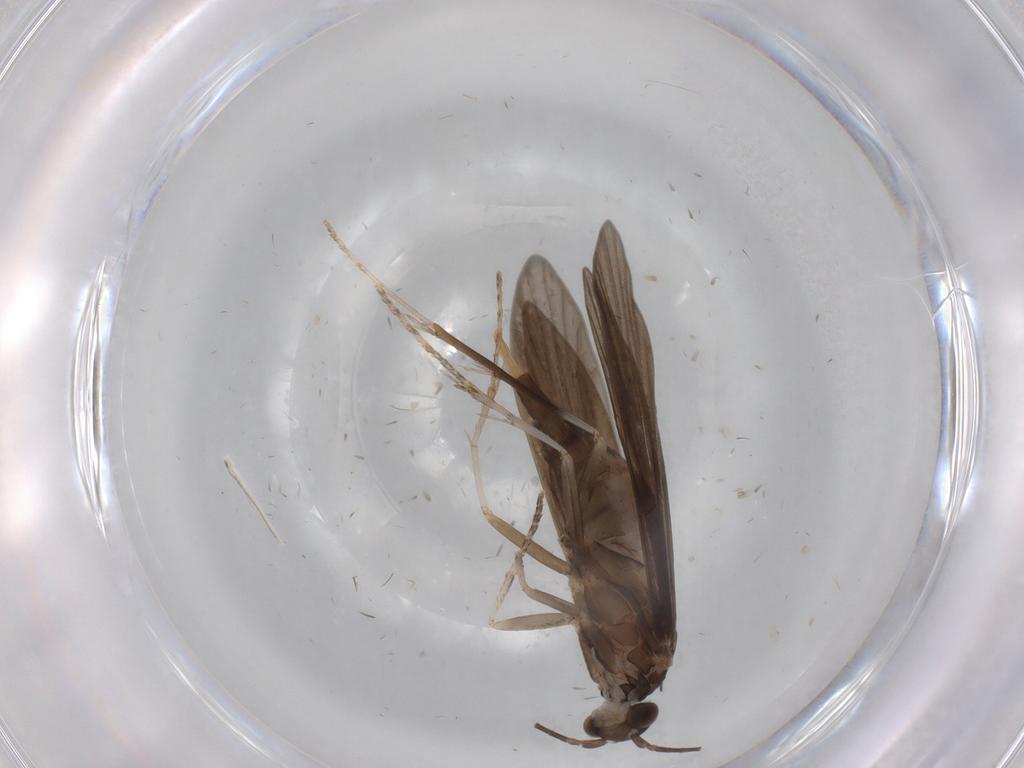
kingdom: Animalia
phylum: Arthropoda
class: Insecta
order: Trichoptera
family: Xiphocentronidae
